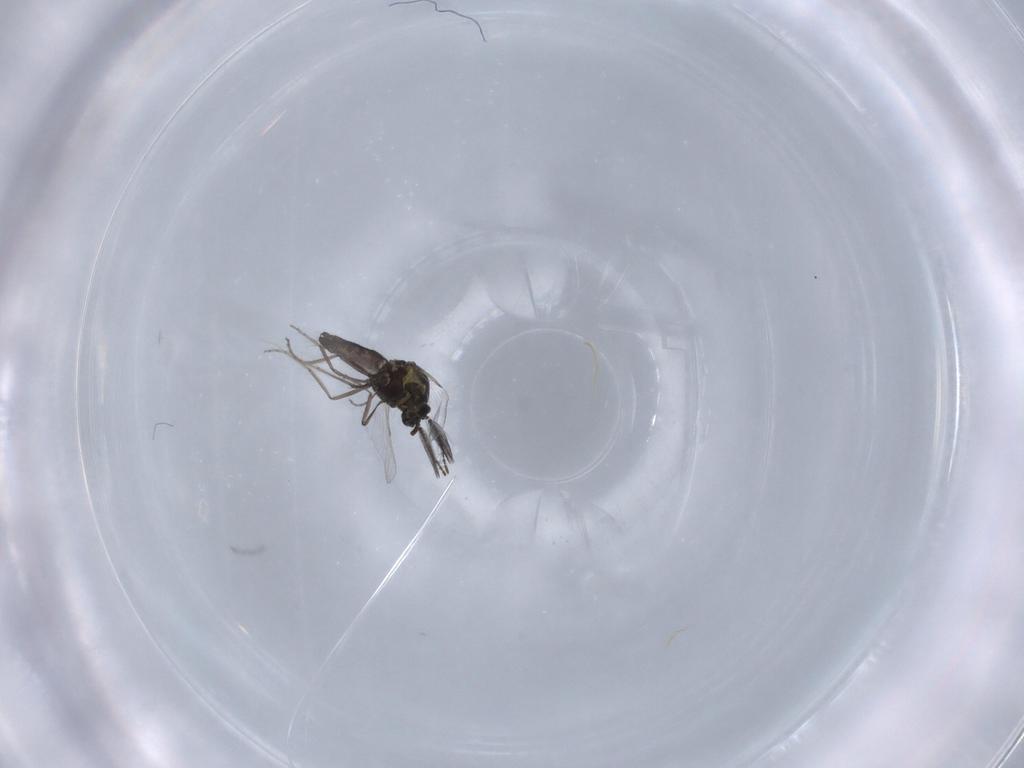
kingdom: Animalia
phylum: Arthropoda
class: Insecta
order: Diptera
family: Ceratopogonidae
